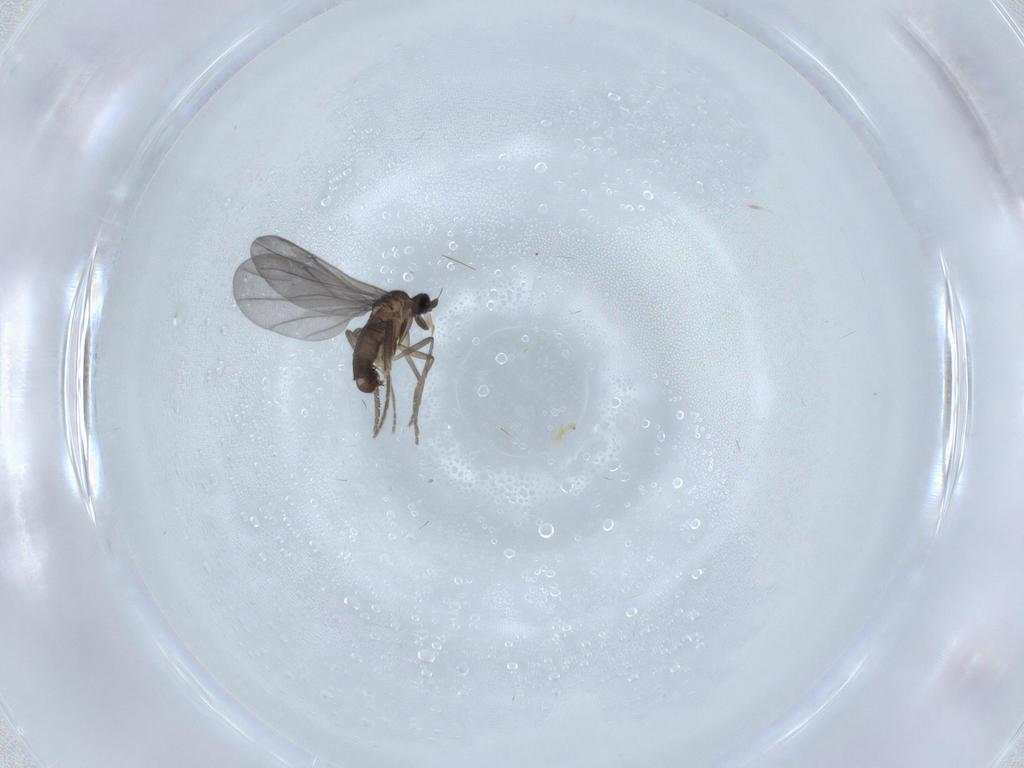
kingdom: Animalia
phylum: Arthropoda
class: Insecta
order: Diptera
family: Phoridae
